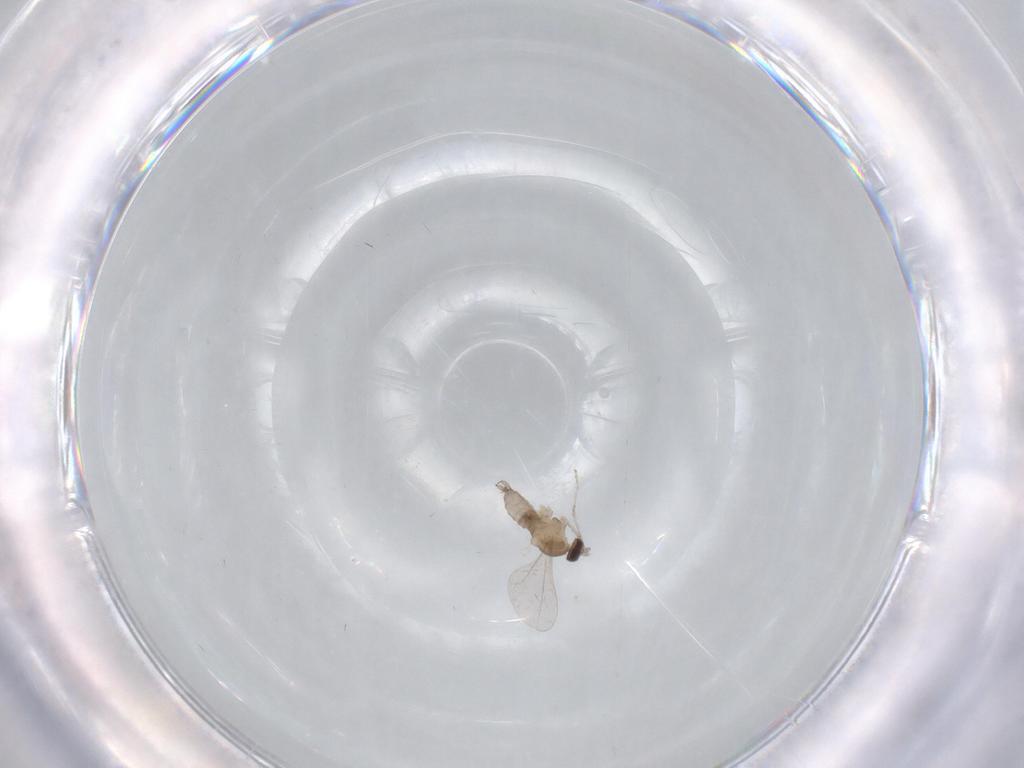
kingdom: Animalia
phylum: Arthropoda
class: Insecta
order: Diptera
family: Cecidomyiidae
